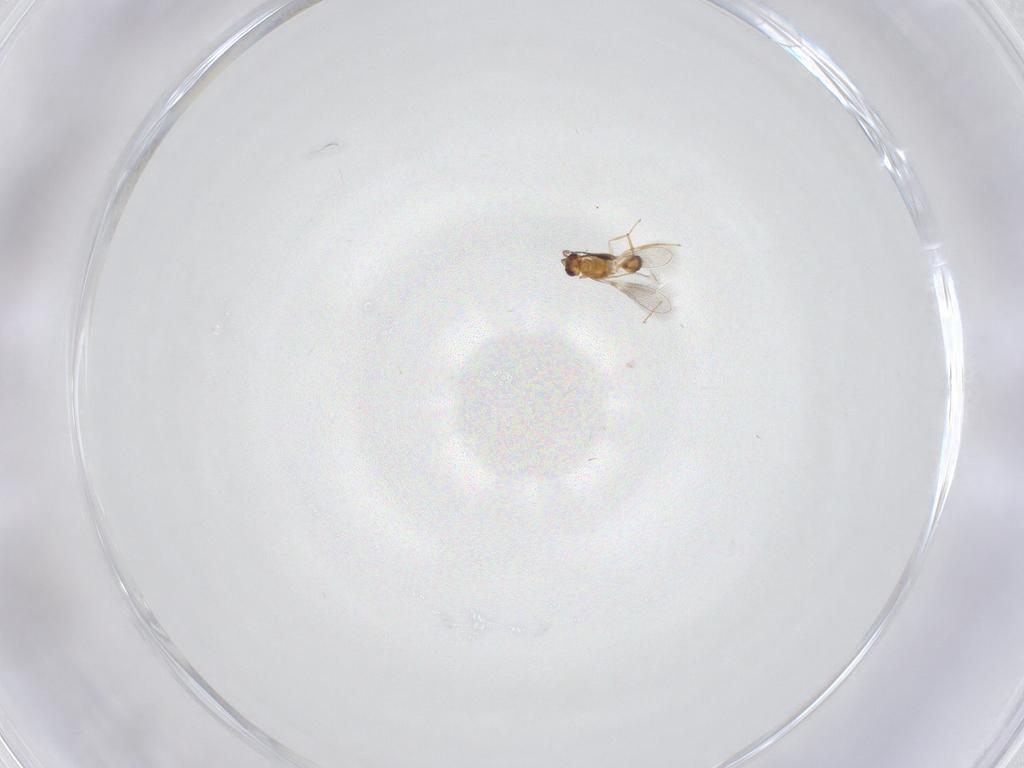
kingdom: Animalia
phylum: Arthropoda
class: Insecta
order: Hymenoptera
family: Mymaridae
